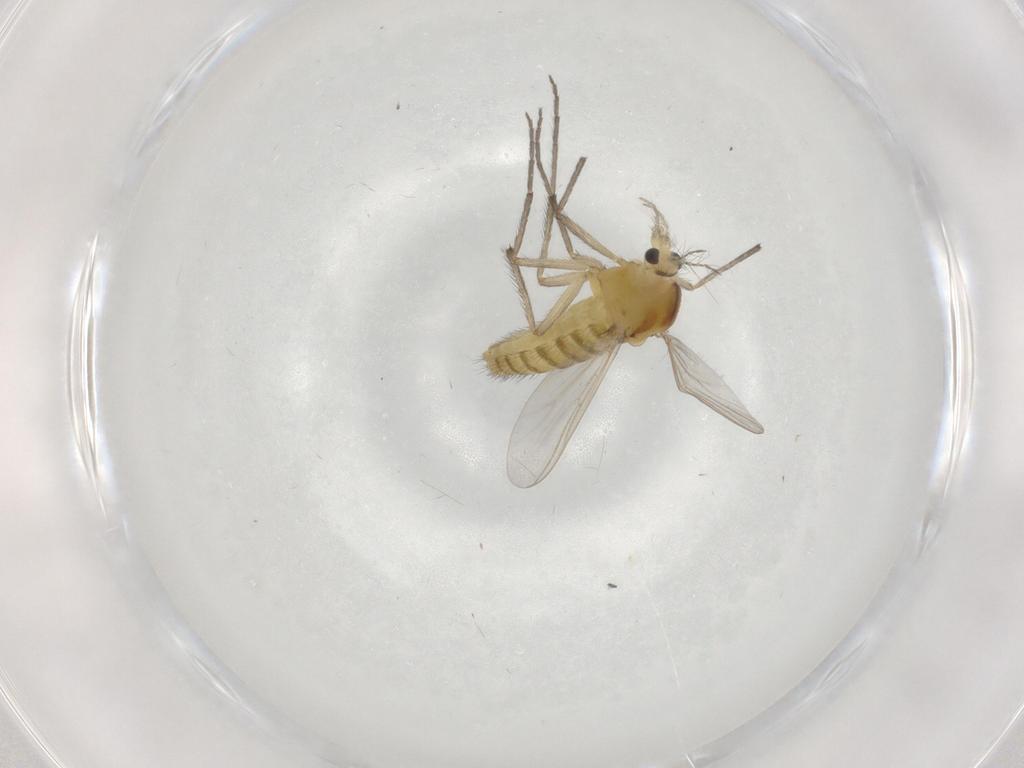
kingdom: Animalia
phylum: Arthropoda
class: Insecta
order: Diptera
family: Chironomidae
